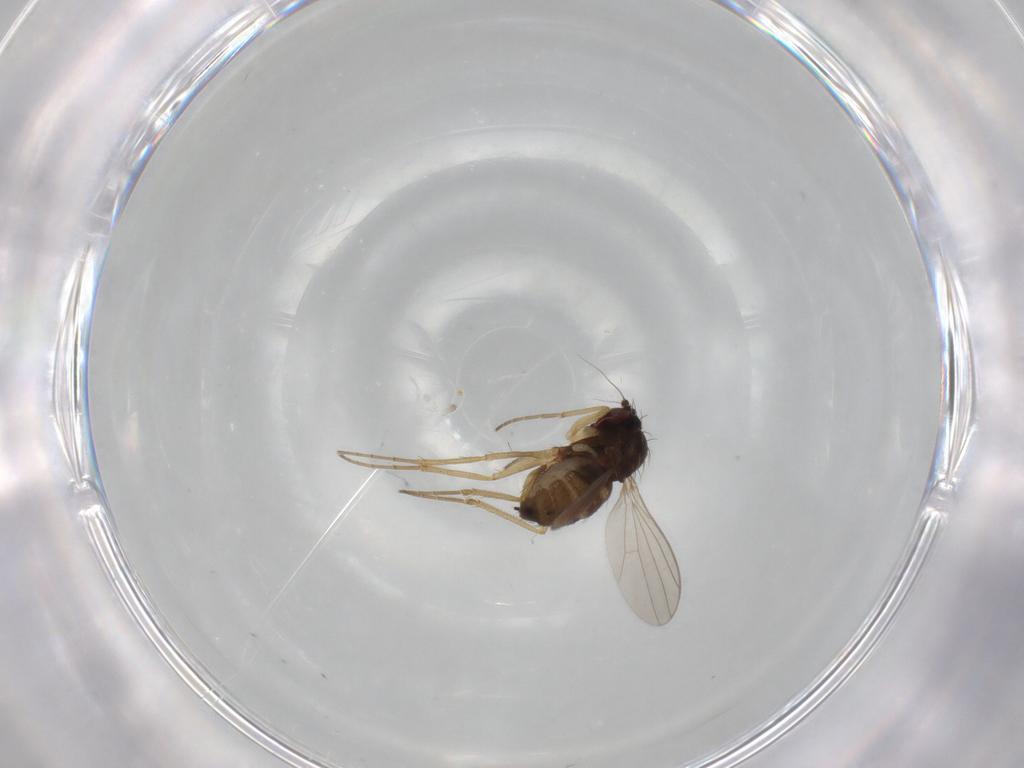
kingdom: Animalia
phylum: Arthropoda
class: Insecta
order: Diptera
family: Dolichopodidae
